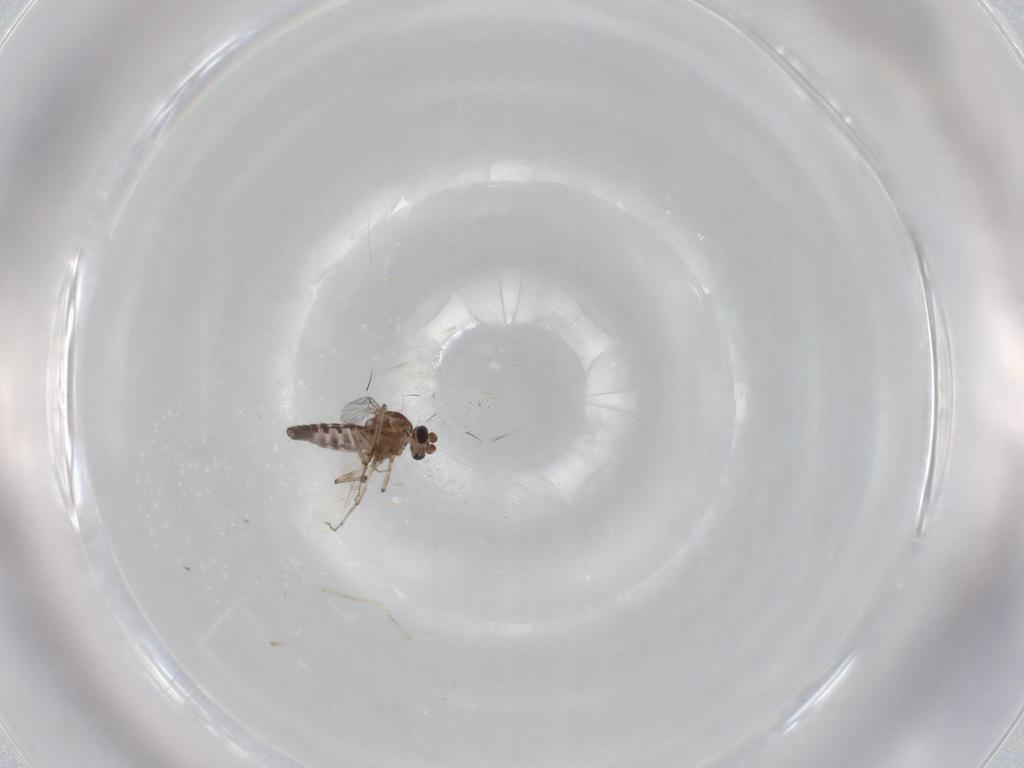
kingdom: Animalia
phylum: Arthropoda
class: Insecta
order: Diptera
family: Ceratopogonidae
